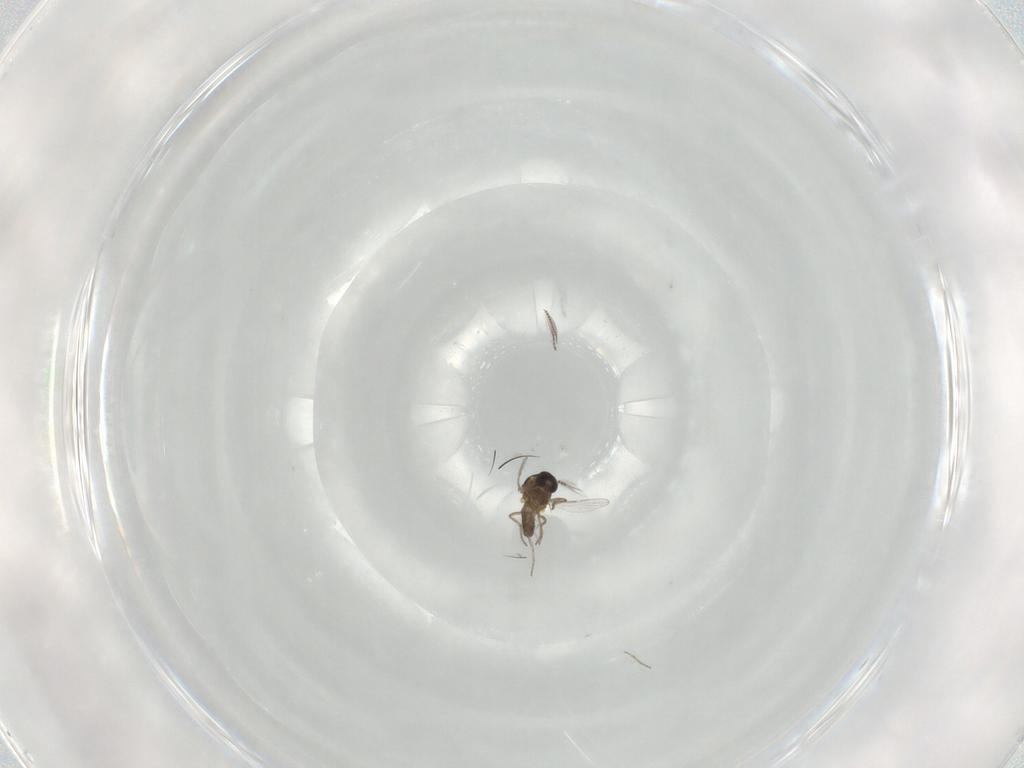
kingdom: Animalia
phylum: Arthropoda
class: Insecta
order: Diptera
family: Ceratopogonidae
